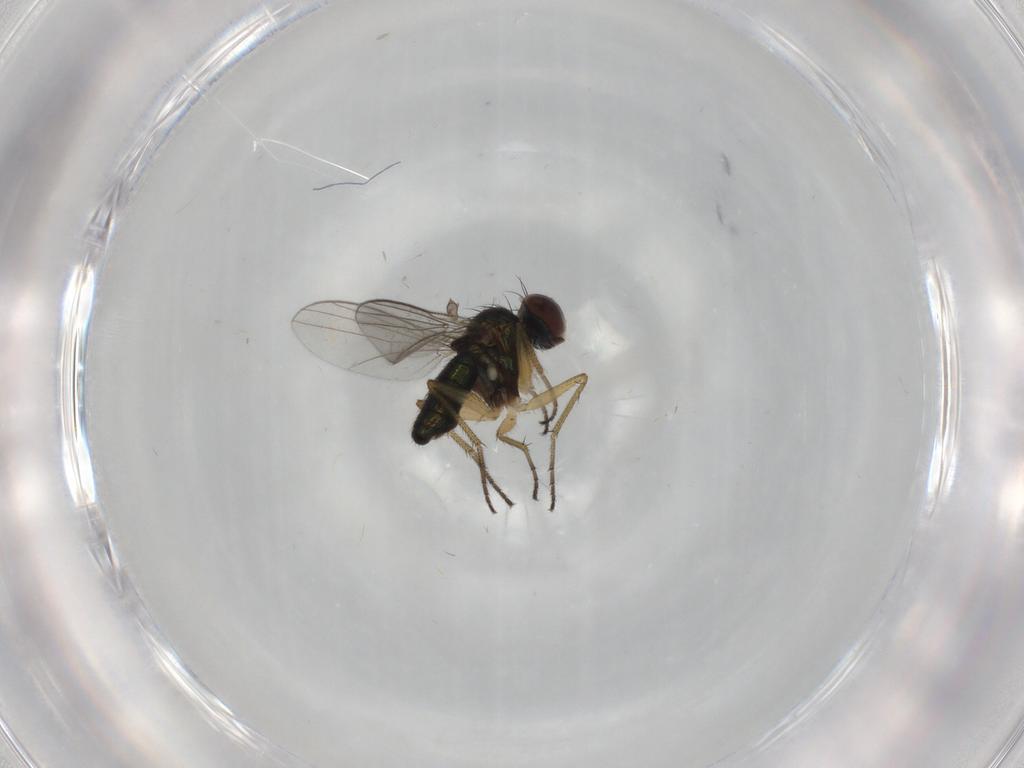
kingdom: Animalia
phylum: Arthropoda
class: Insecta
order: Diptera
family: Dolichopodidae
